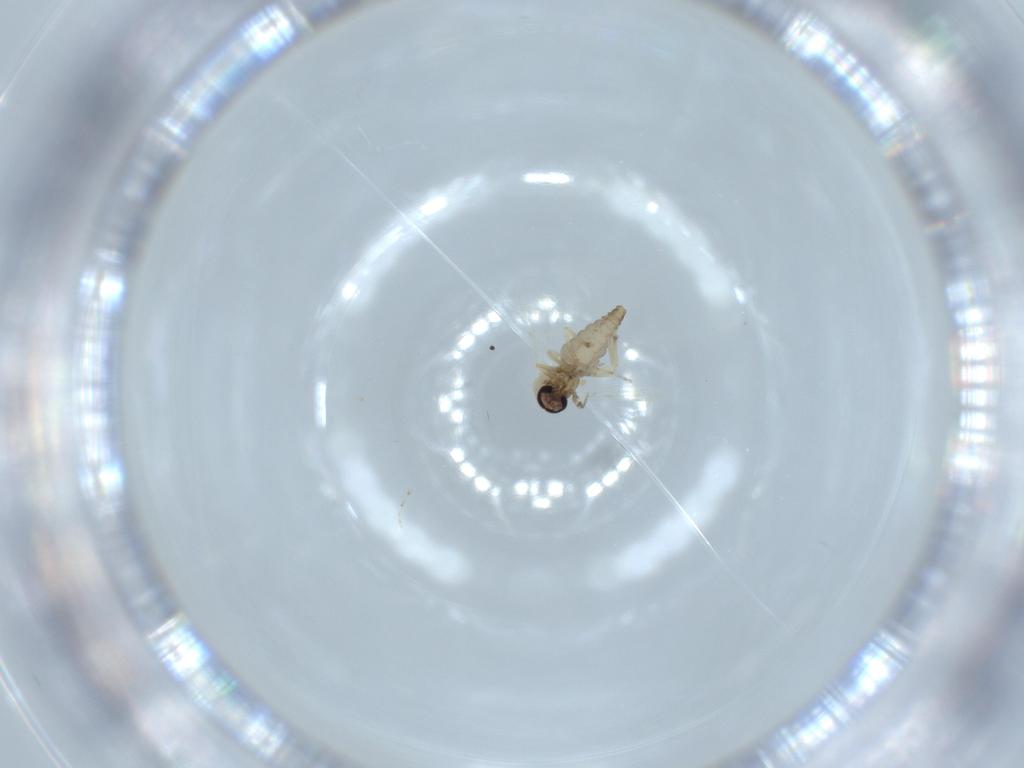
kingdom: Animalia
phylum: Arthropoda
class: Insecta
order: Diptera
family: Ceratopogonidae
